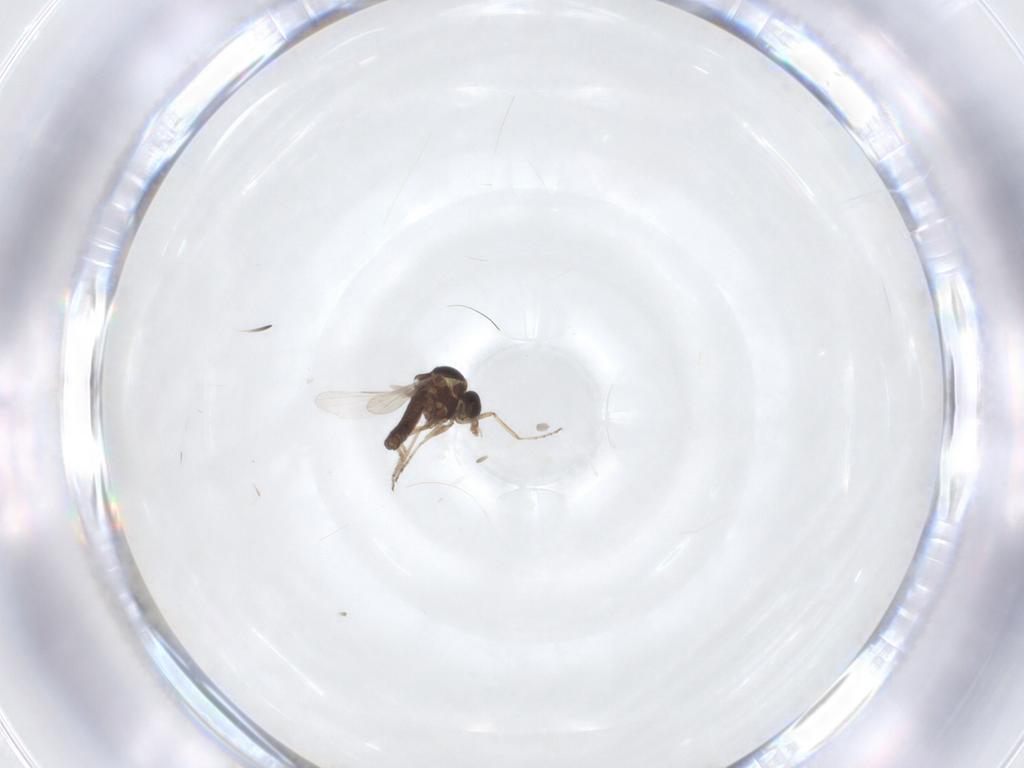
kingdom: Animalia
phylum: Arthropoda
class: Insecta
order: Diptera
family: Ceratopogonidae
